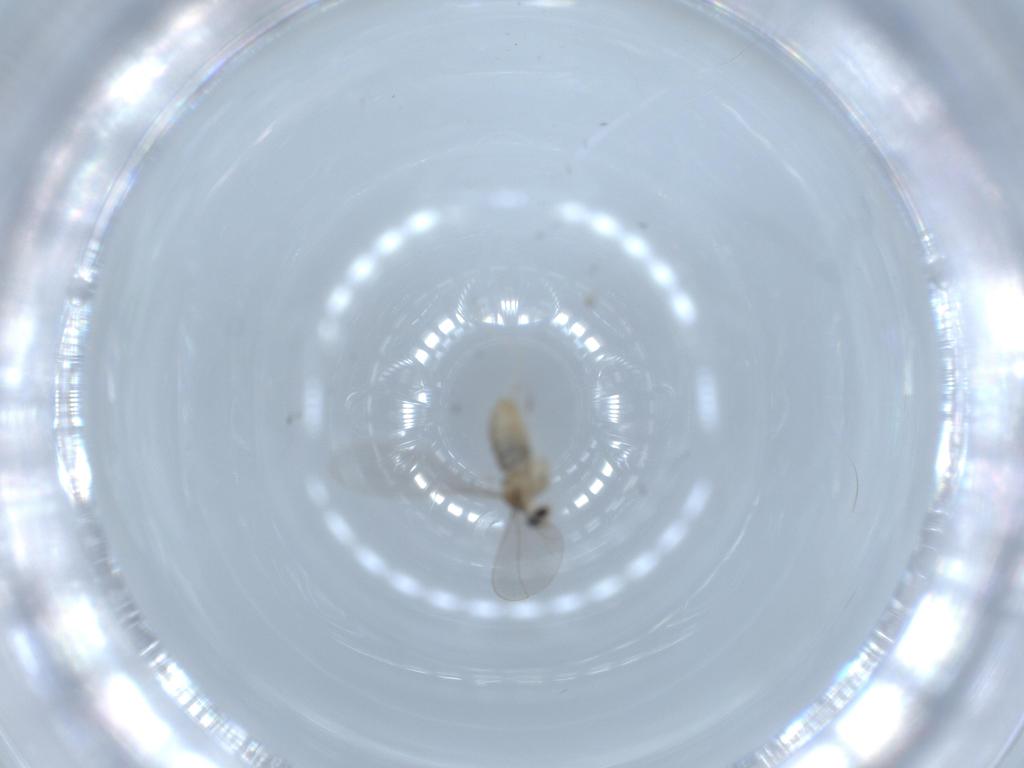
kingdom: Animalia
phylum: Arthropoda
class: Insecta
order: Diptera
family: Cecidomyiidae
